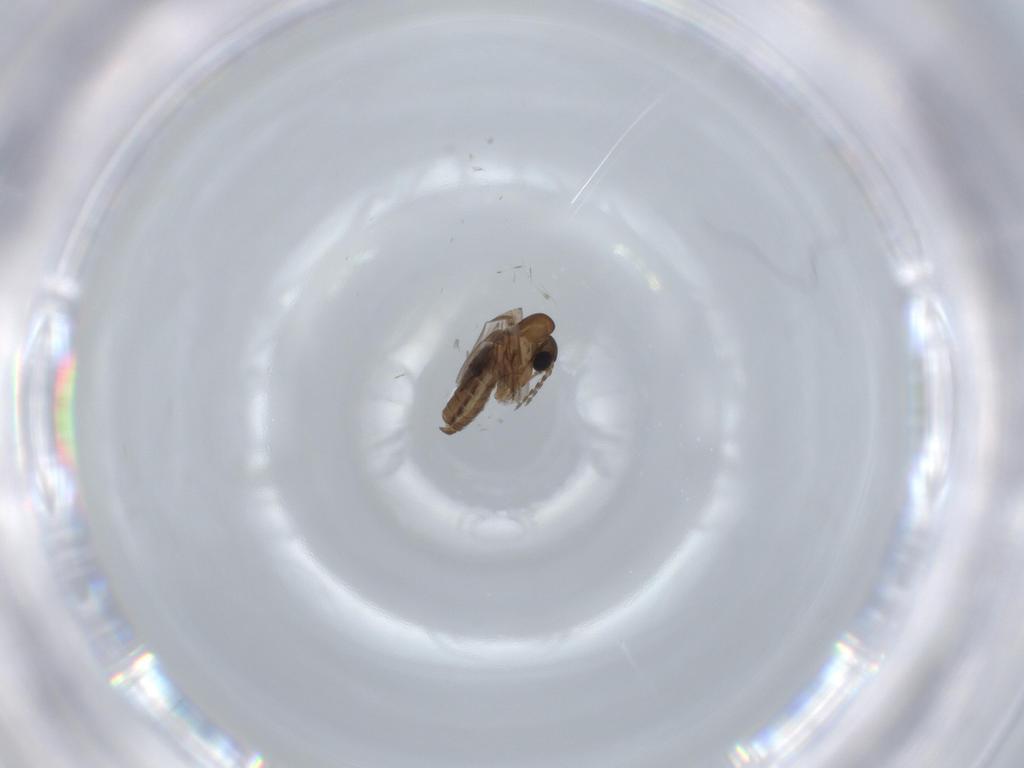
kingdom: Animalia
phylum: Arthropoda
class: Insecta
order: Diptera
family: Psychodidae
